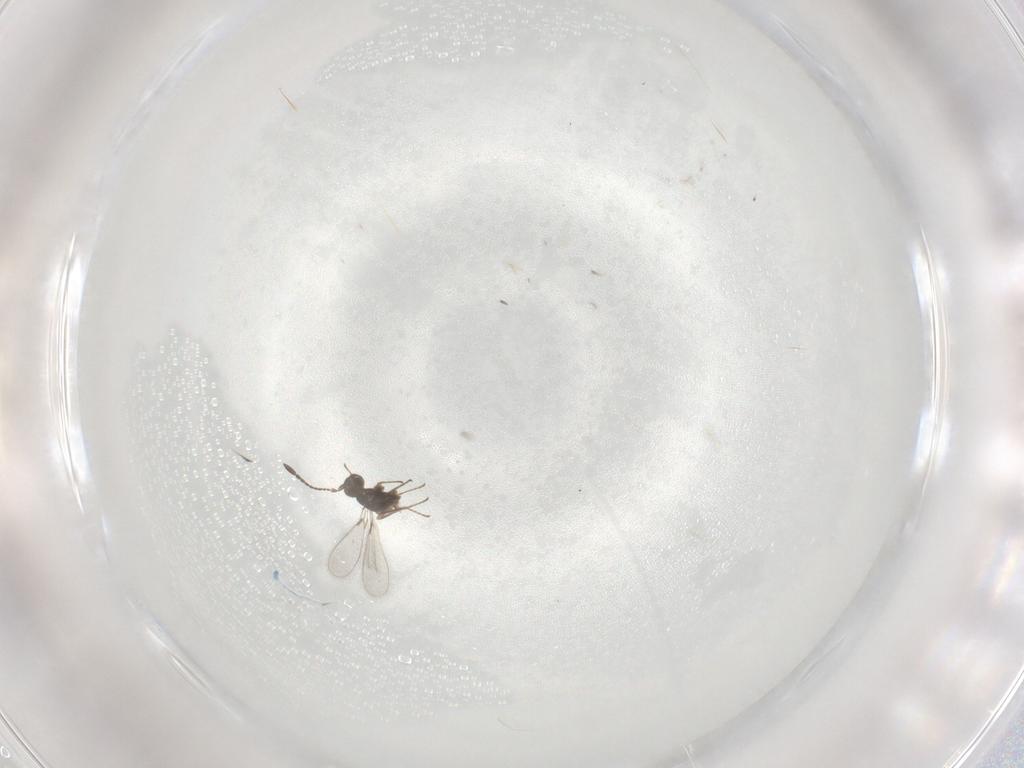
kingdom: Animalia
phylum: Arthropoda
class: Insecta
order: Hymenoptera
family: Mymaridae
